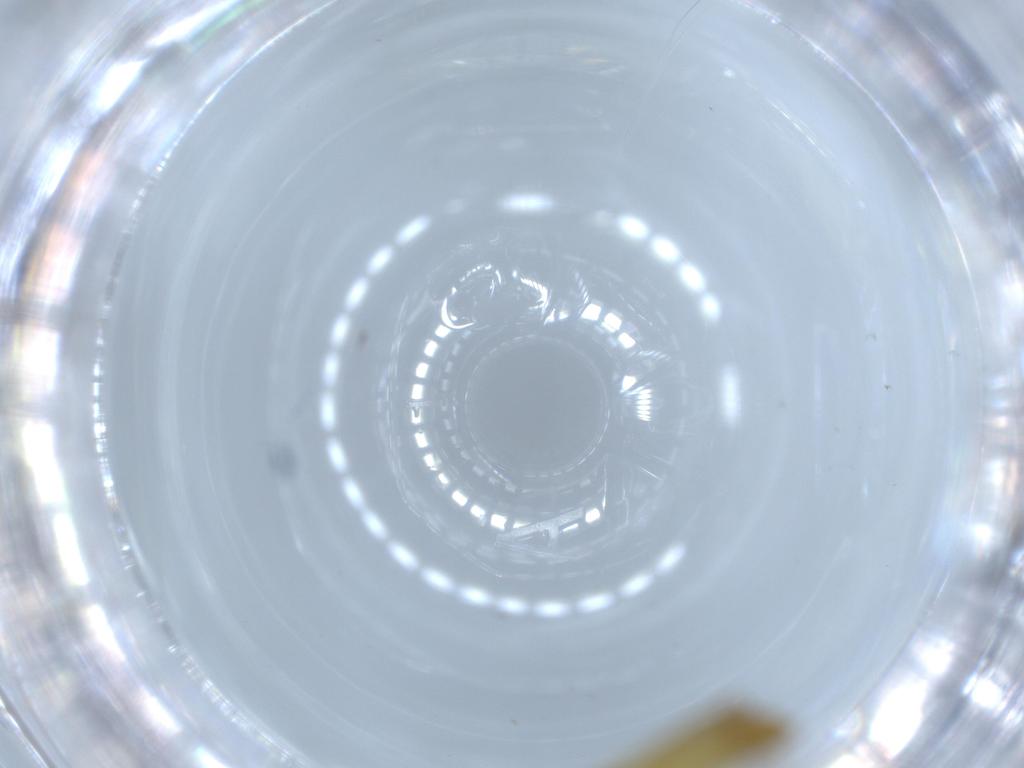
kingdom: Animalia
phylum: Arthropoda
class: Insecta
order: Diptera
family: Chironomidae
